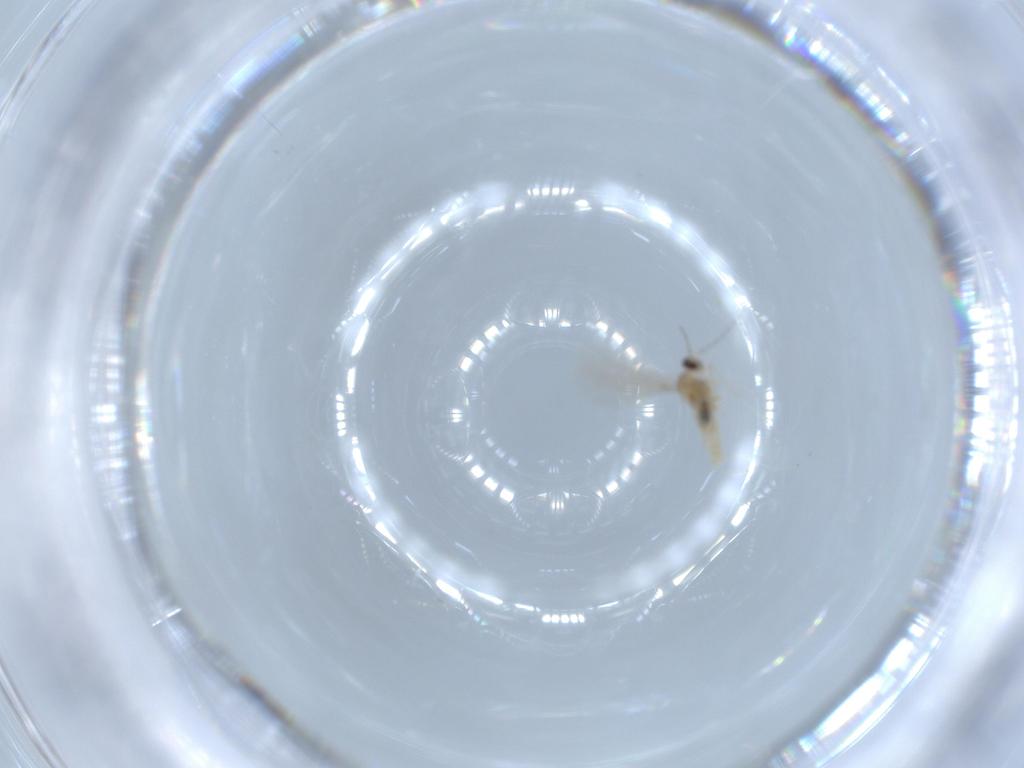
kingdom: Animalia
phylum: Arthropoda
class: Insecta
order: Diptera
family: Cecidomyiidae
